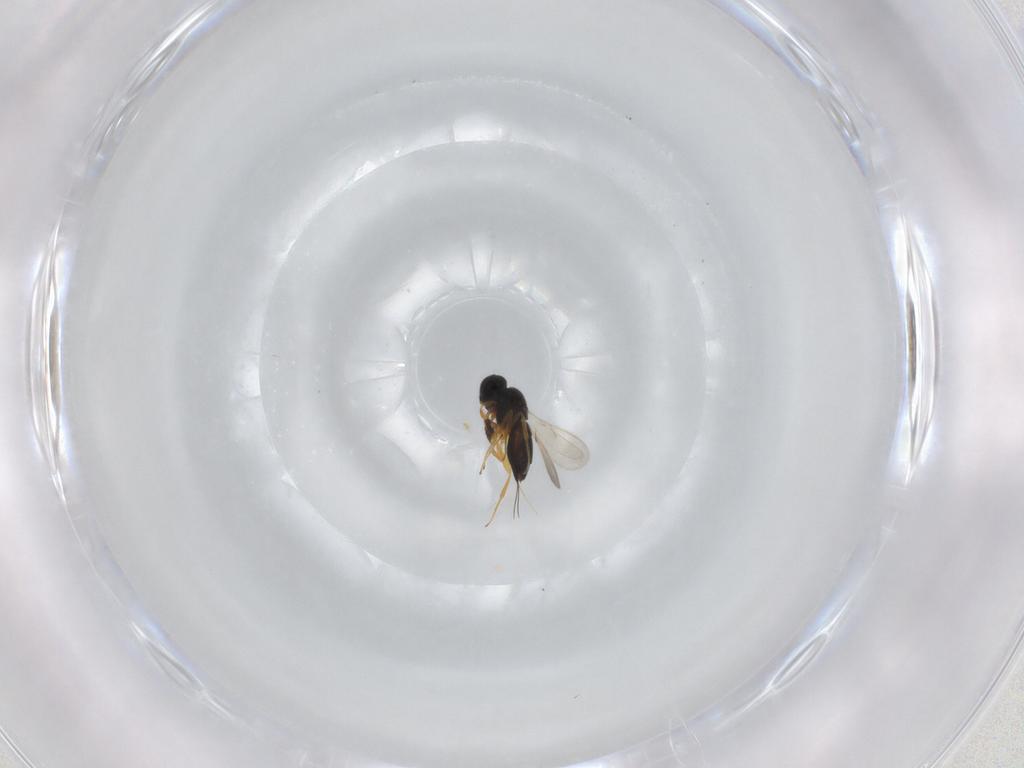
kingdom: Animalia
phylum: Arthropoda
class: Insecta
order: Hymenoptera
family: Scelionidae
